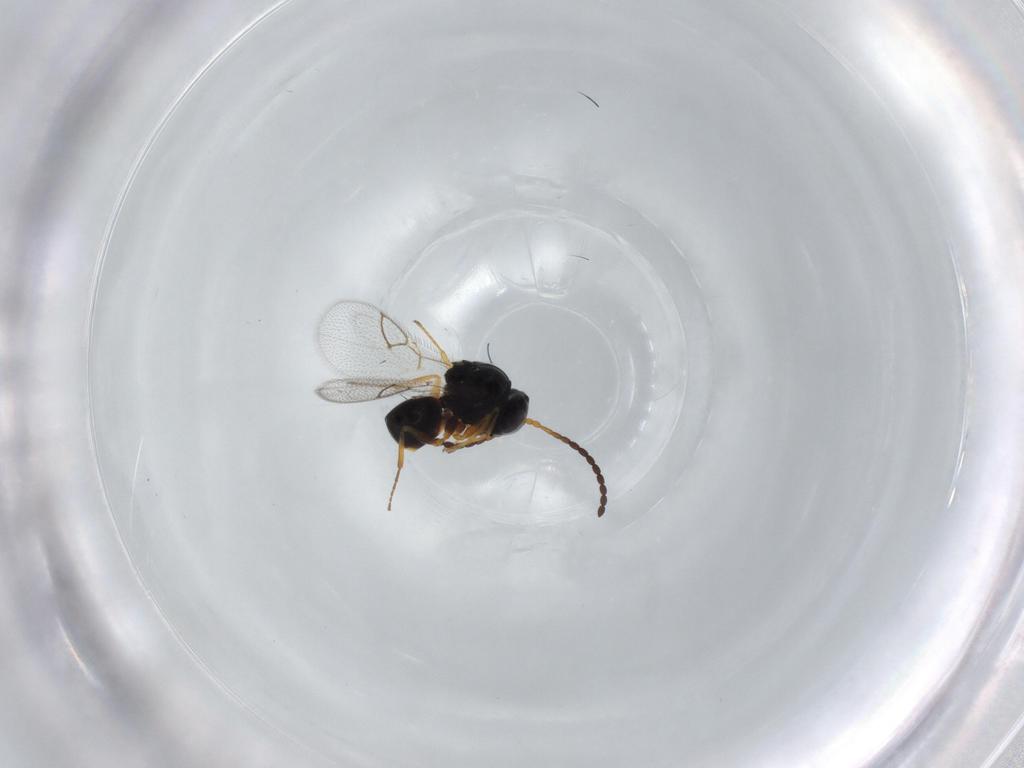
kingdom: Animalia
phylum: Arthropoda
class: Insecta
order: Hymenoptera
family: Figitidae
